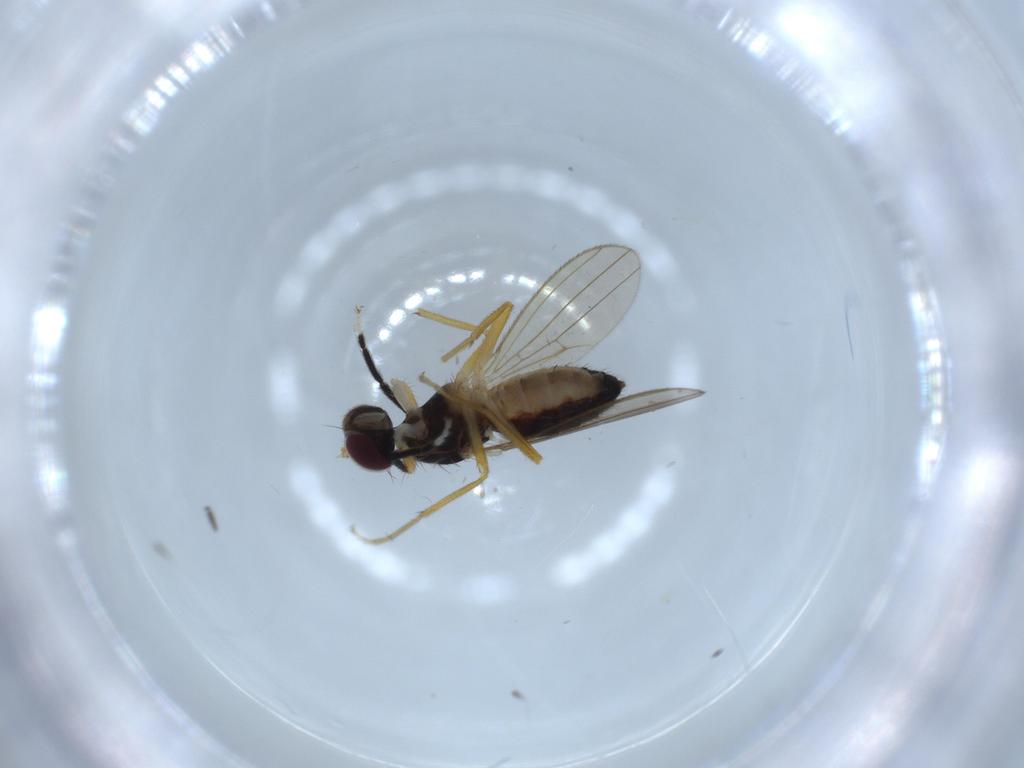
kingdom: Animalia
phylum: Arthropoda
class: Insecta
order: Diptera
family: Anthomyzidae
